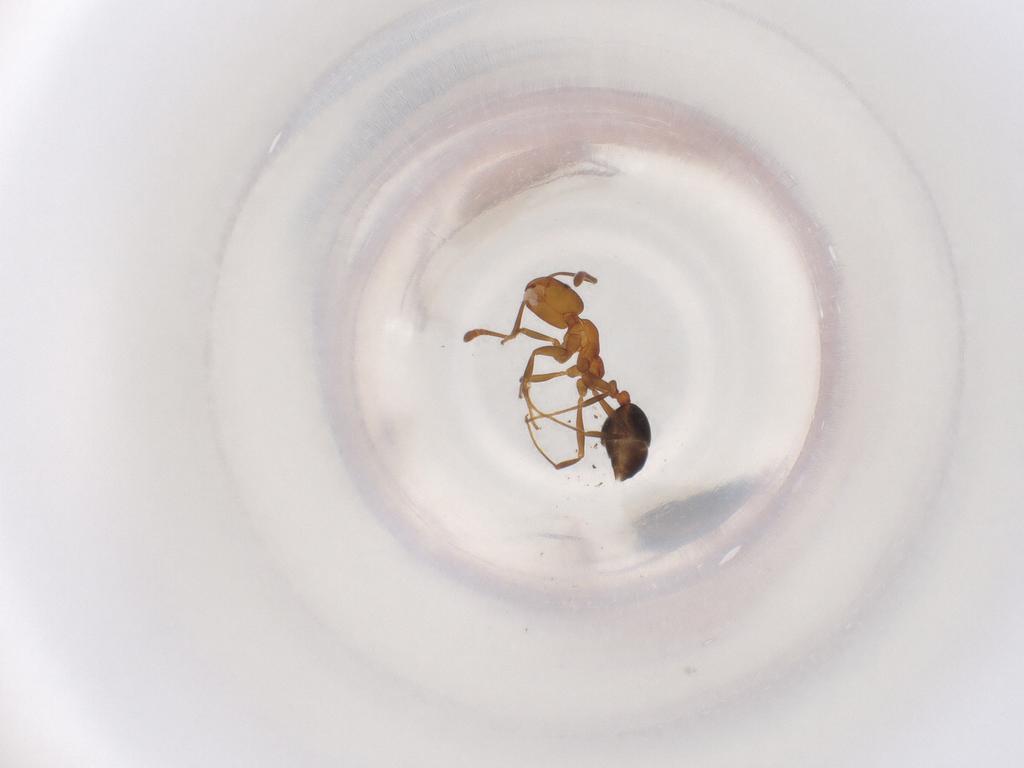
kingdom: Animalia
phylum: Arthropoda
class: Insecta
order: Hymenoptera
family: Formicidae
